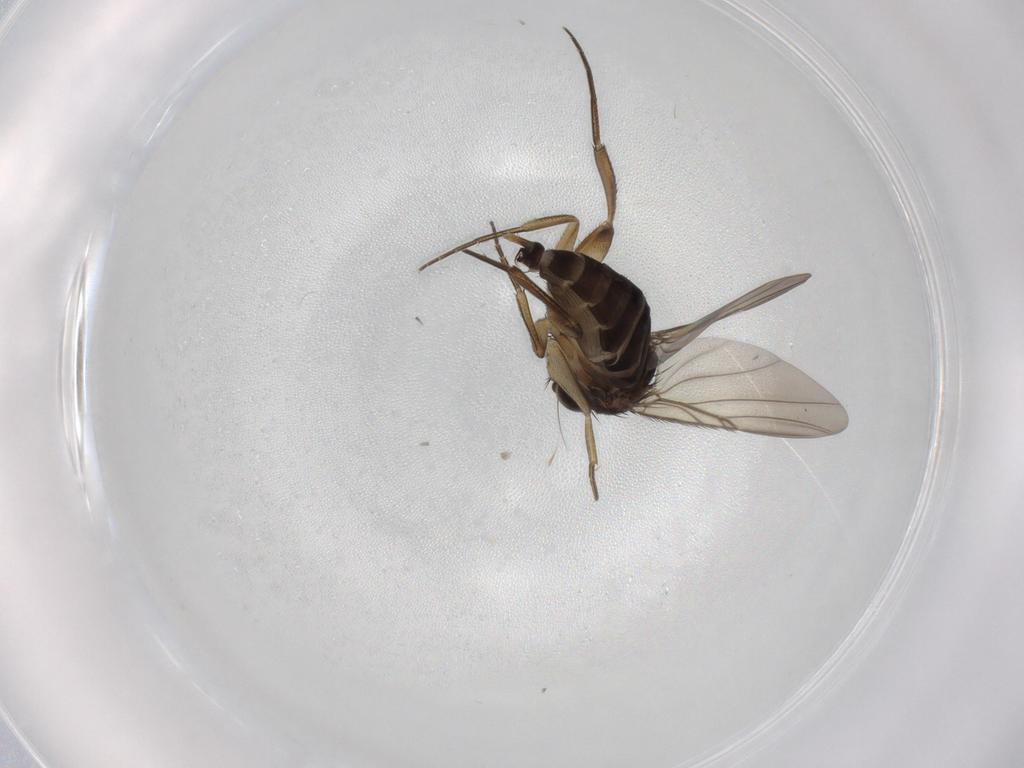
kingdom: Animalia
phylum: Arthropoda
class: Insecta
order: Diptera
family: Phoridae
